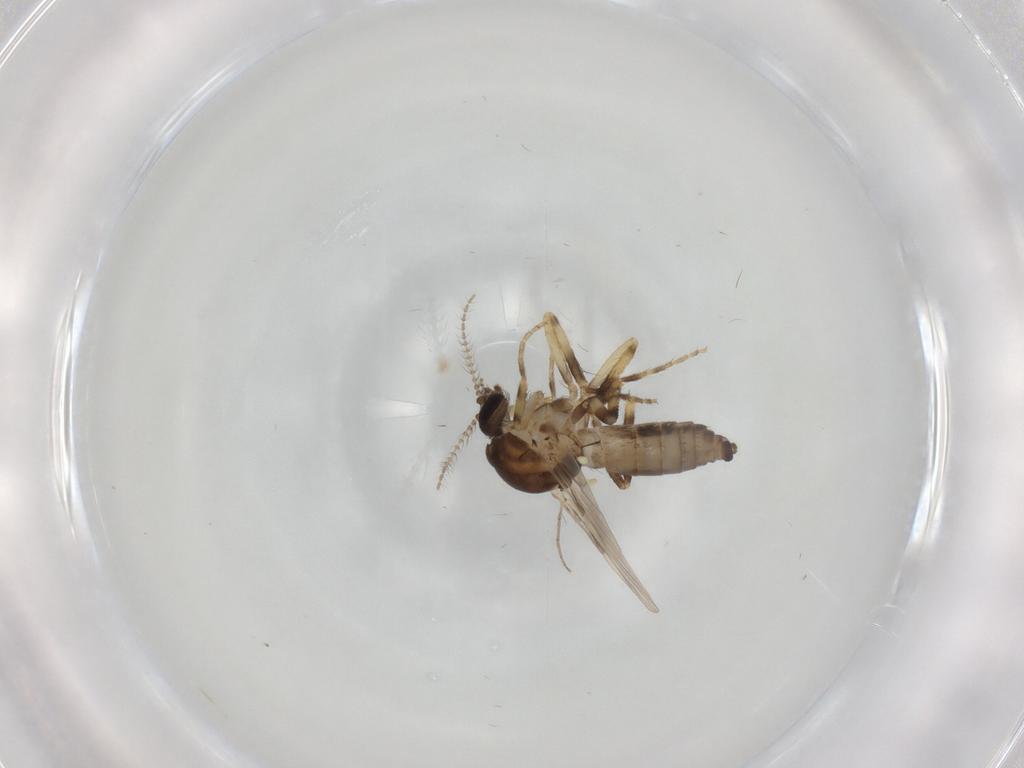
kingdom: Animalia
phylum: Arthropoda
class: Insecta
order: Diptera
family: Ceratopogonidae
